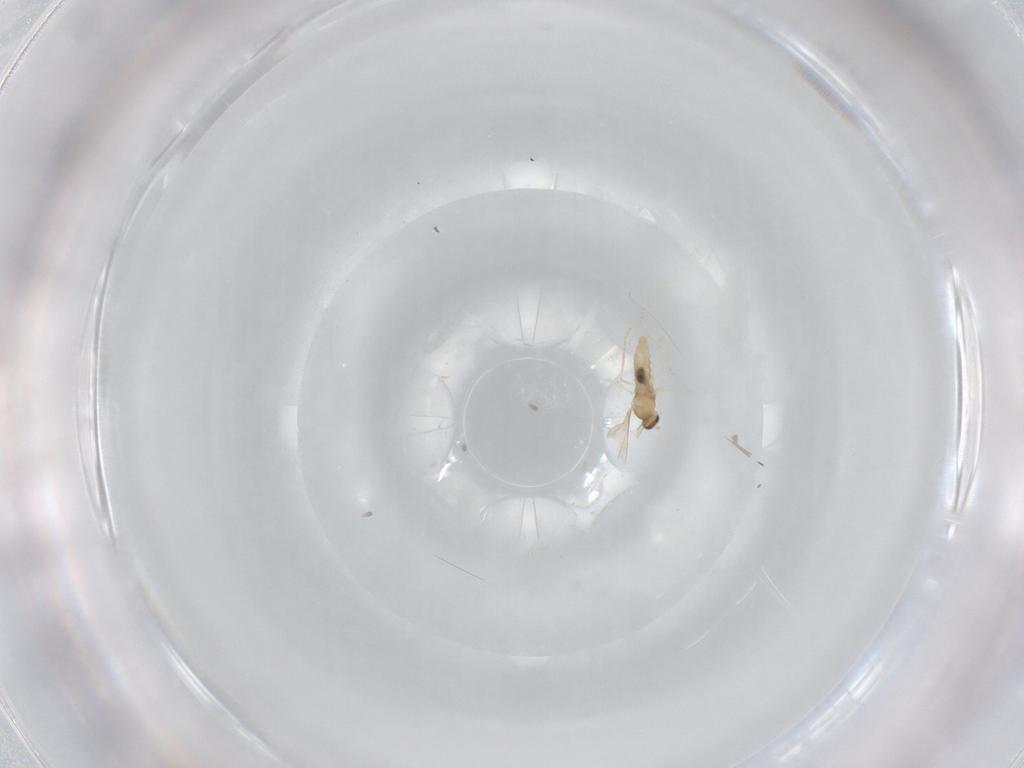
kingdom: Animalia
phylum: Arthropoda
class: Insecta
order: Diptera
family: Cecidomyiidae
